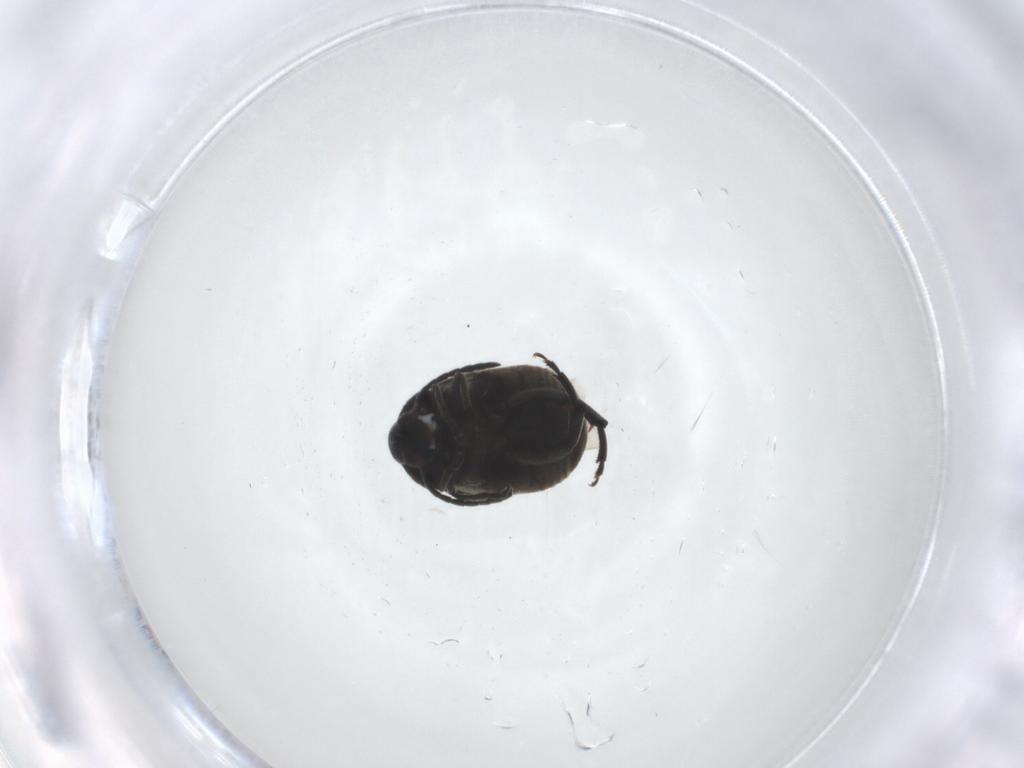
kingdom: Animalia
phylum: Arthropoda
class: Insecta
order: Coleoptera
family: Chrysomelidae
